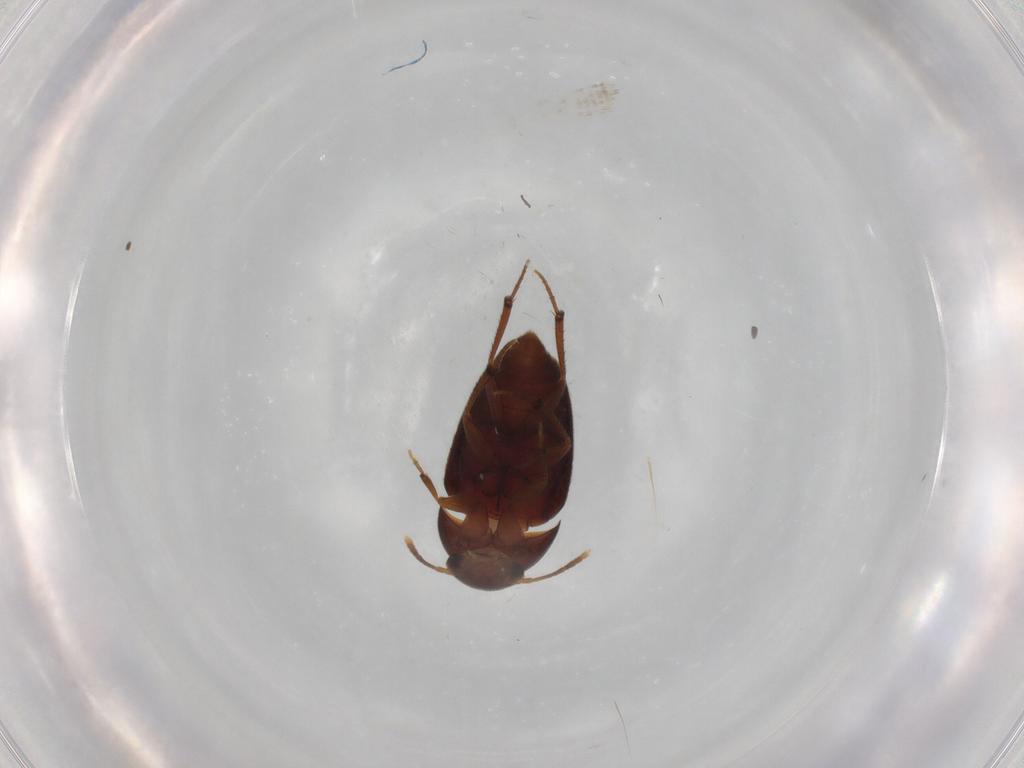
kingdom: Animalia
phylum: Arthropoda
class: Insecta
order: Coleoptera
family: Leiodidae
